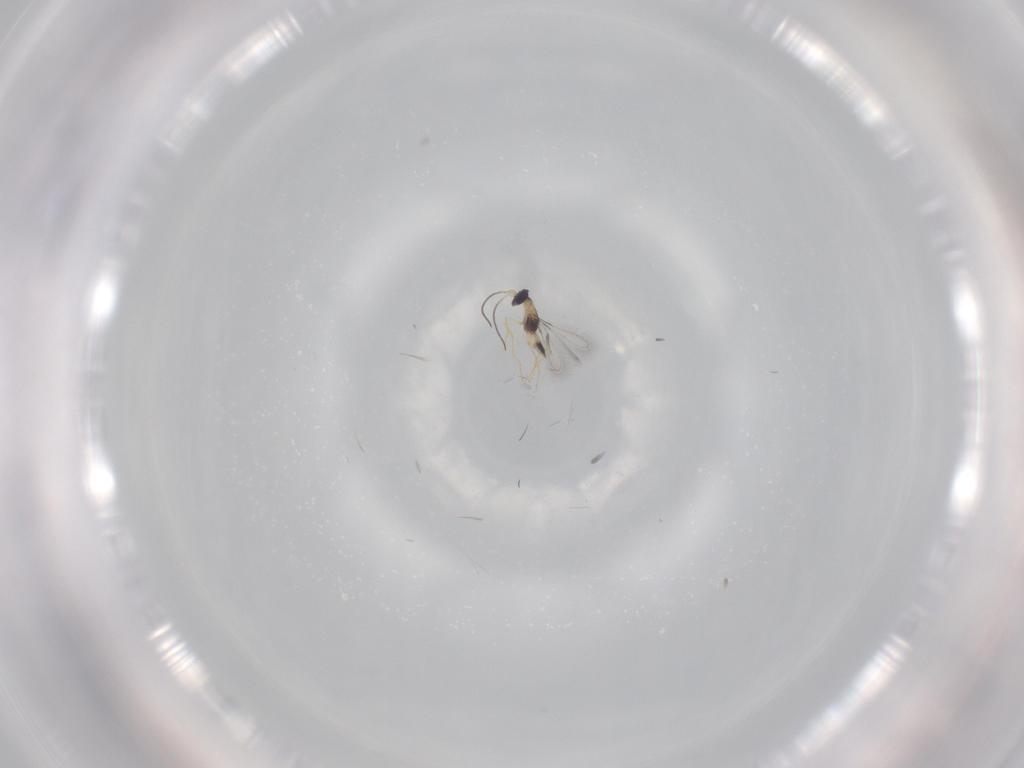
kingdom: Animalia
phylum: Arthropoda
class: Insecta
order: Hymenoptera
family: Mymaridae
